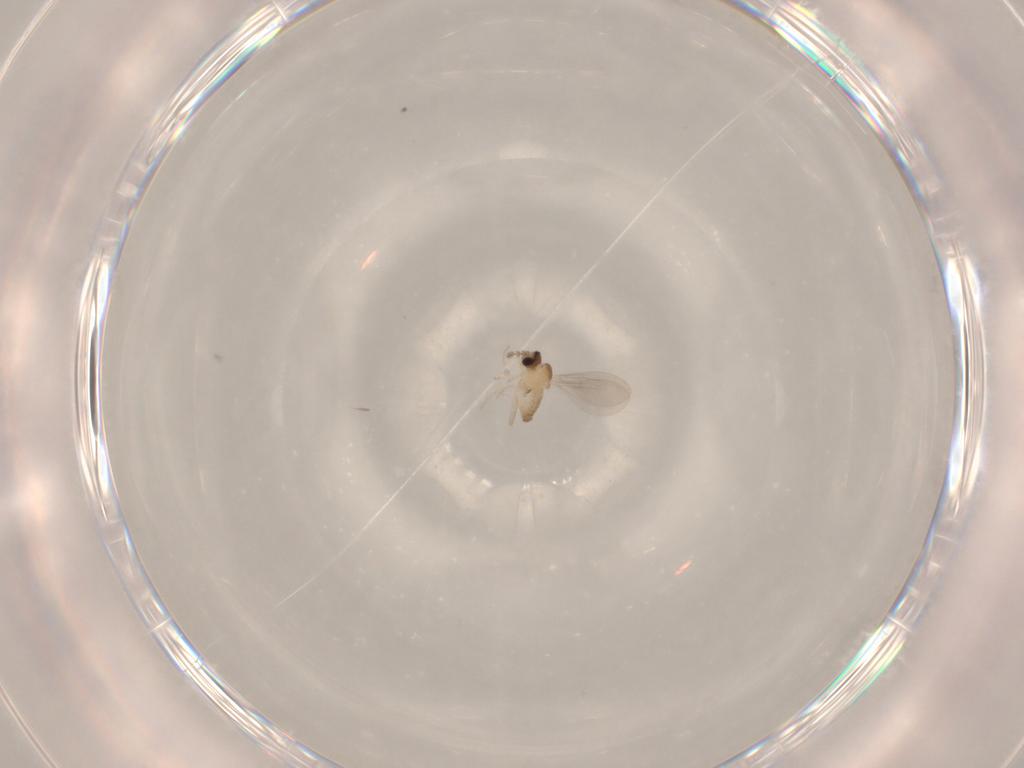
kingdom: Animalia
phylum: Arthropoda
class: Insecta
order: Diptera
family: Cecidomyiidae
